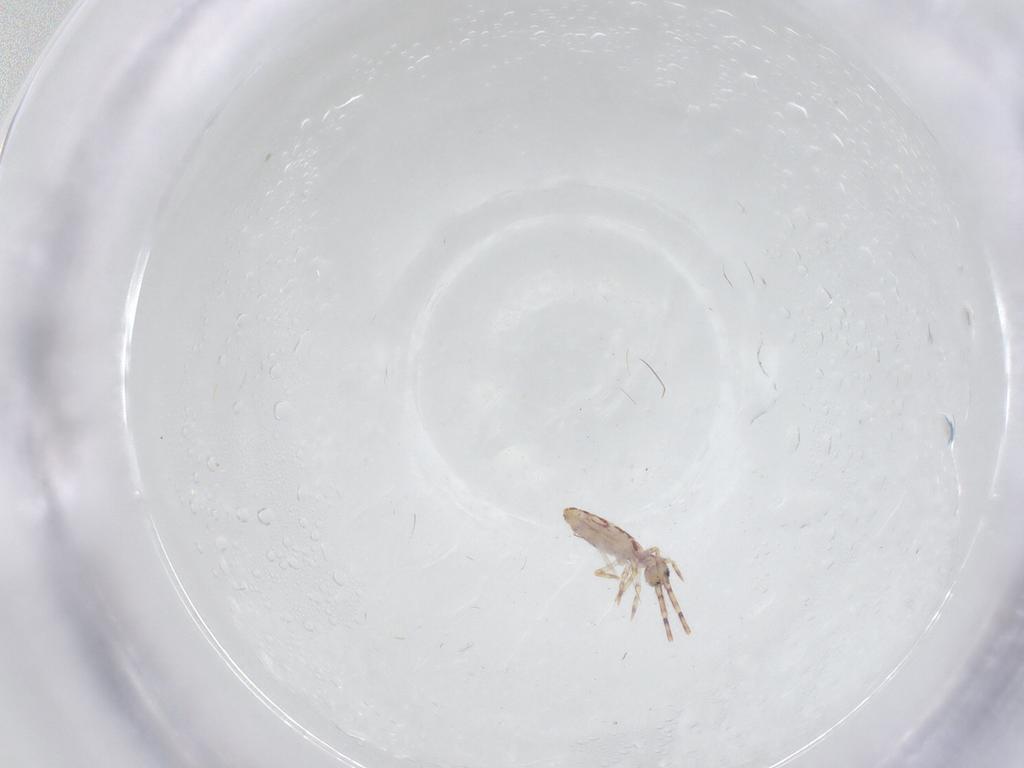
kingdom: Animalia
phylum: Arthropoda
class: Collembola
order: Entomobryomorpha
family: Entomobryidae
